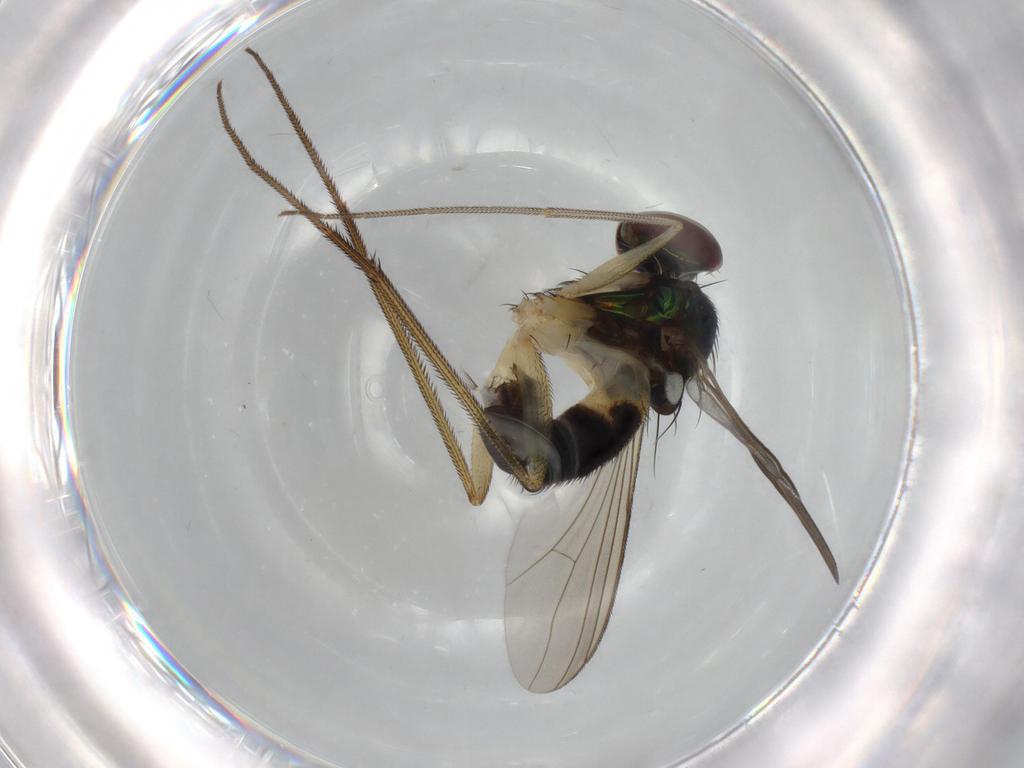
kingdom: Animalia
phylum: Arthropoda
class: Insecta
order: Diptera
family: Dolichopodidae
